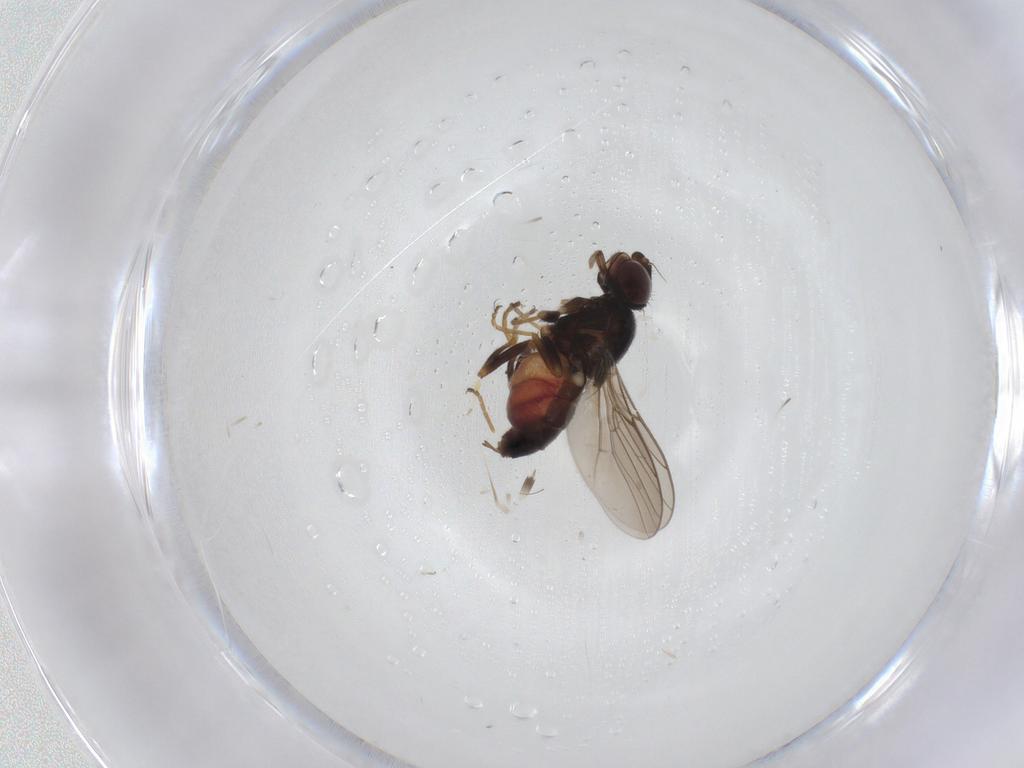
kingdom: Animalia
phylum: Arthropoda
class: Insecta
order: Diptera
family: Chloropidae
